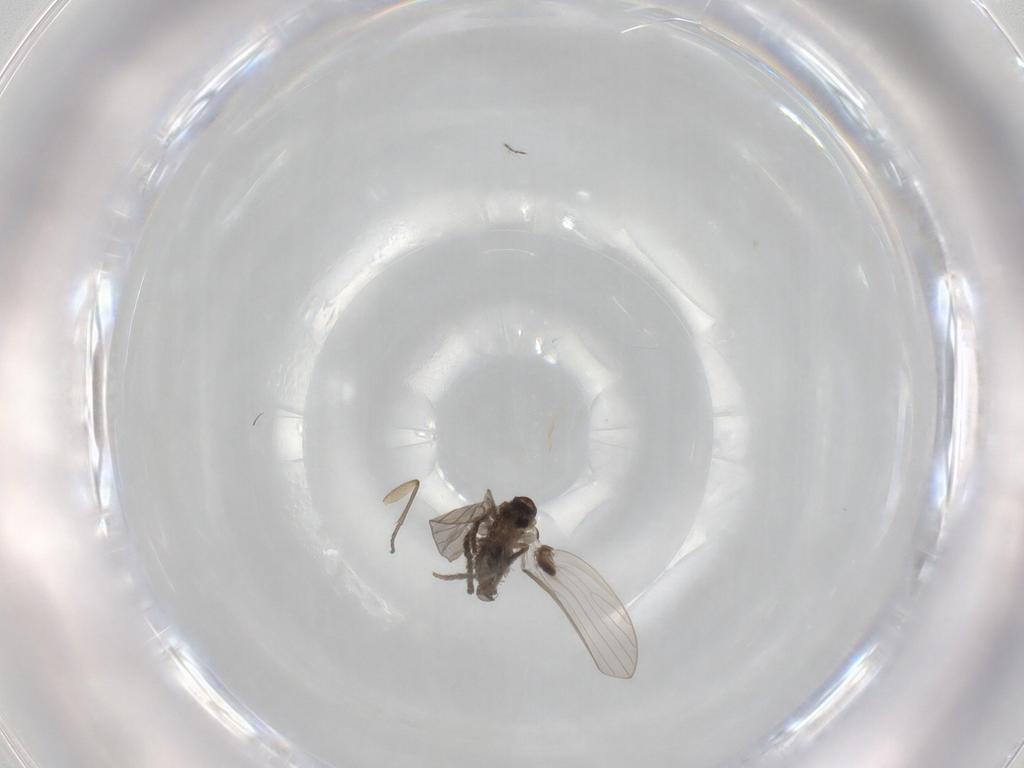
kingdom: Animalia
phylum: Arthropoda
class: Insecta
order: Diptera
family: Psychodidae
